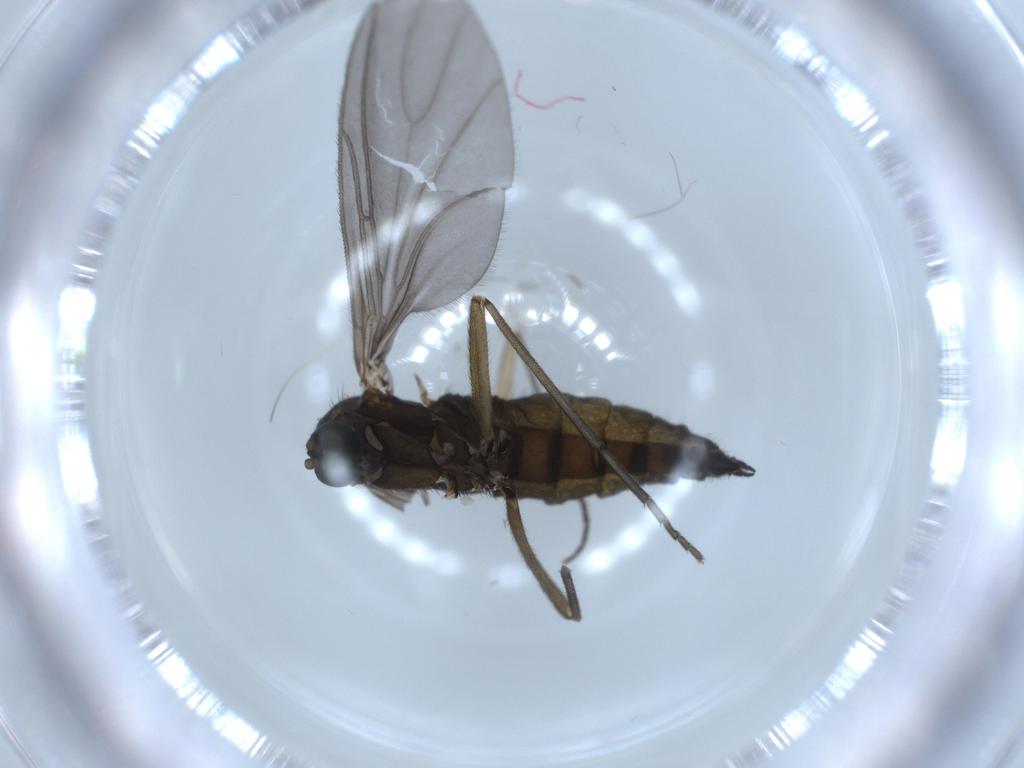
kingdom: Animalia
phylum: Arthropoda
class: Insecta
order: Diptera
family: Sciaridae
